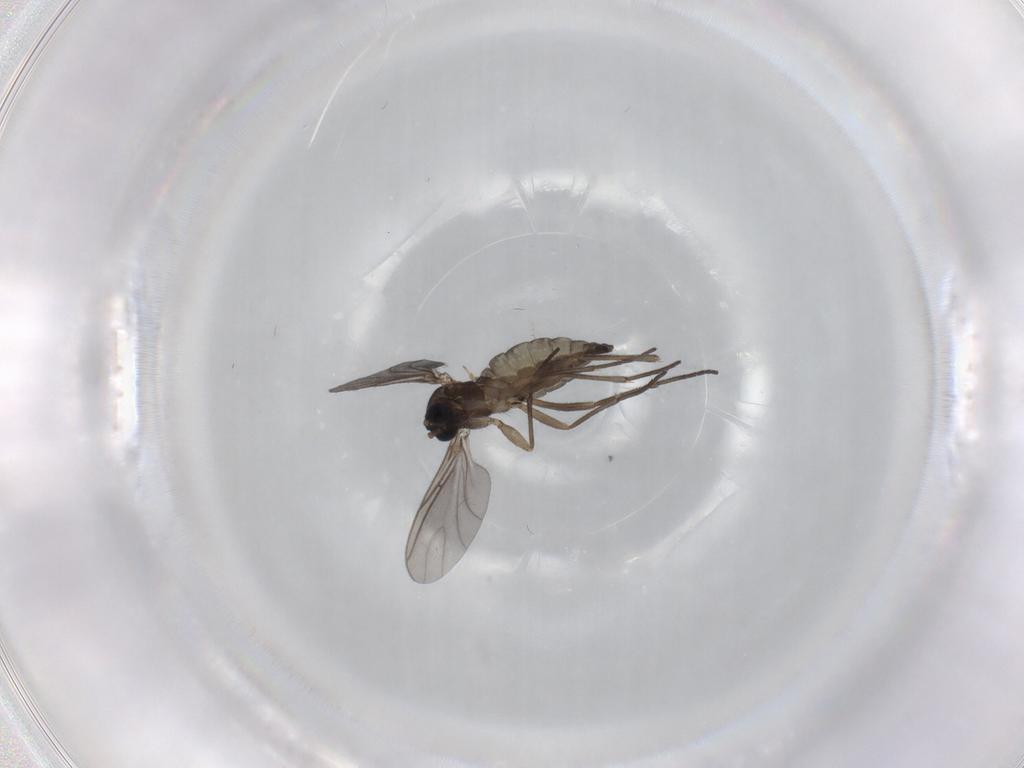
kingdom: Animalia
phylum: Arthropoda
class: Insecta
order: Diptera
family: Sciaridae
